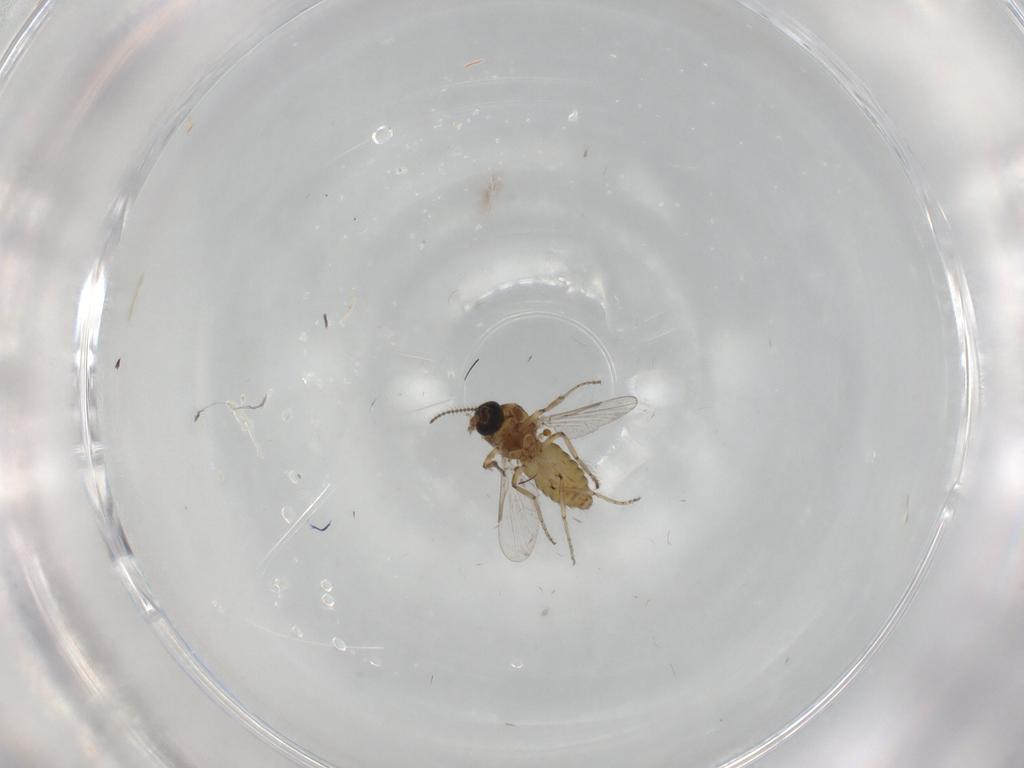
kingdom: Animalia
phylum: Arthropoda
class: Insecta
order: Diptera
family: Ceratopogonidae
